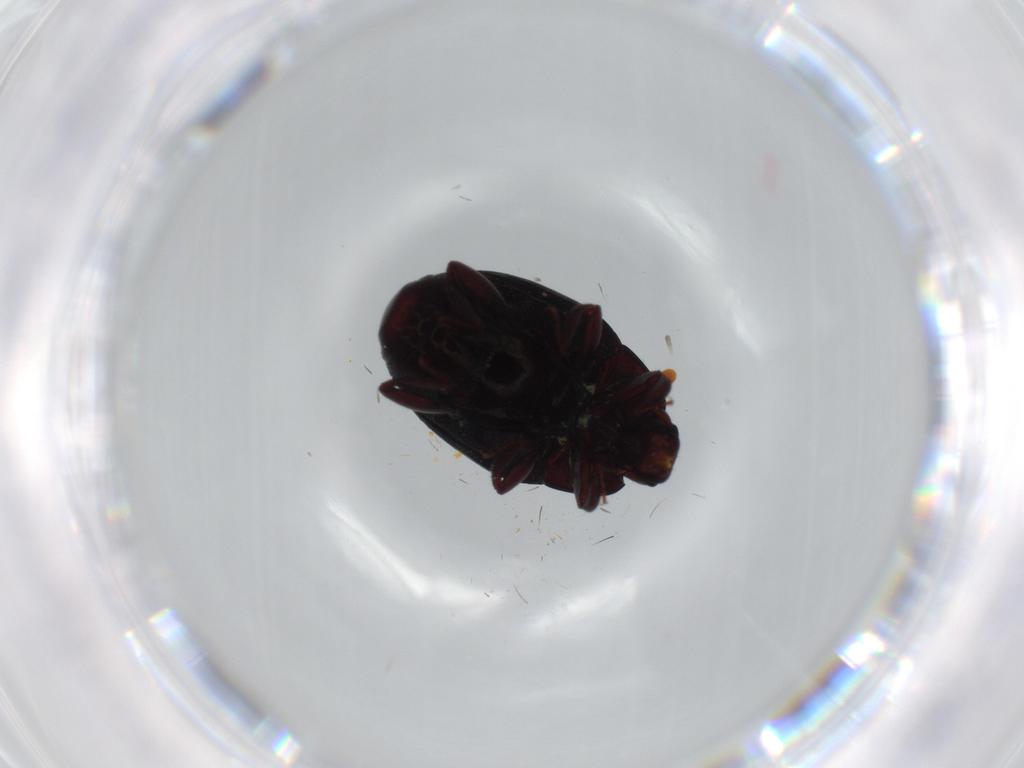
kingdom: Animalia
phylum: Arthropoda
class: Insecta
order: Coleoptera
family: Histeridae
